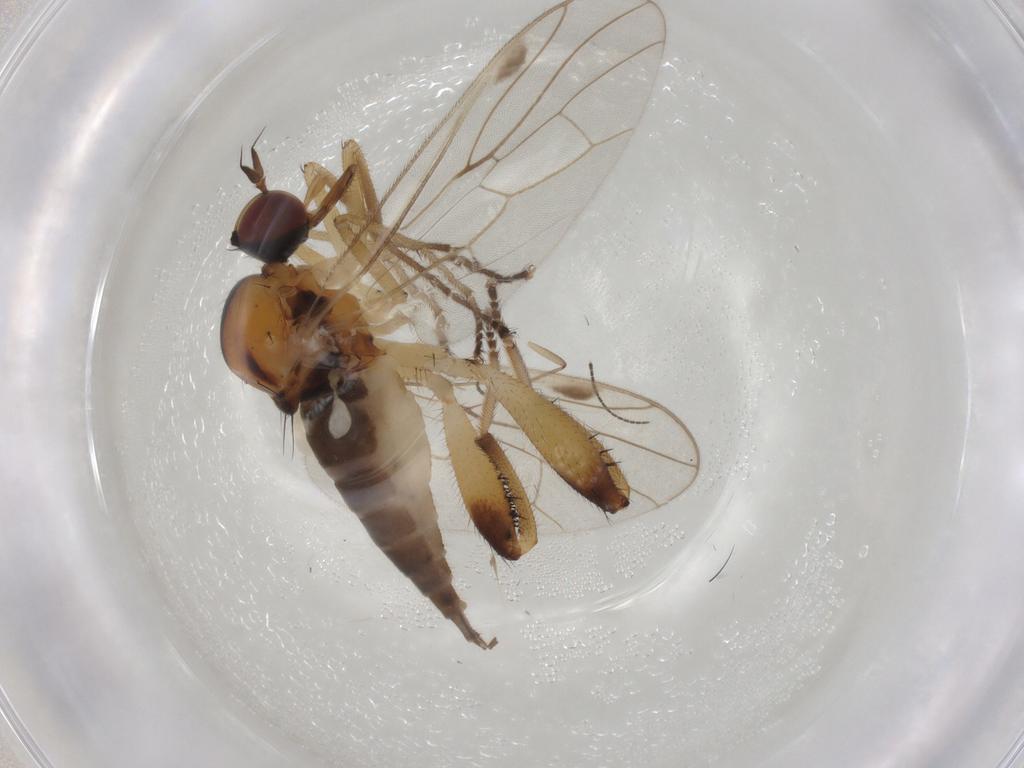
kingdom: Animalia
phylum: Arthropoda
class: Insecta
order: Diptera
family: Hybotidae
